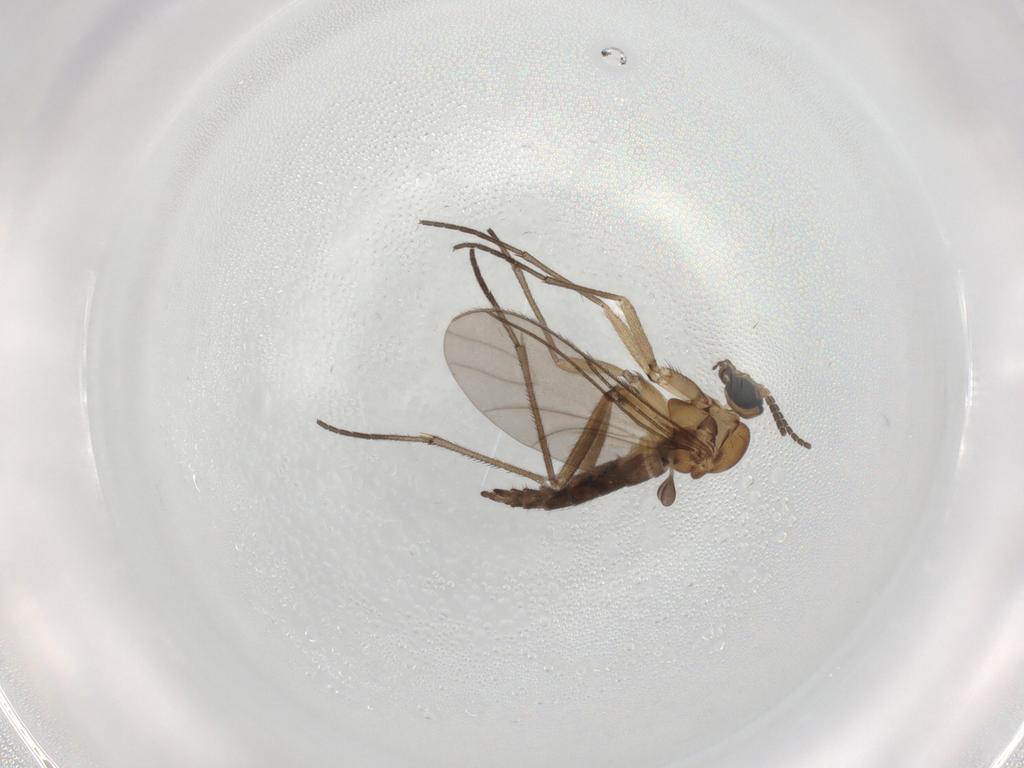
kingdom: Animalia
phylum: Arthropoda
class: Insecta
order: Diptera
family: Sciaridae
